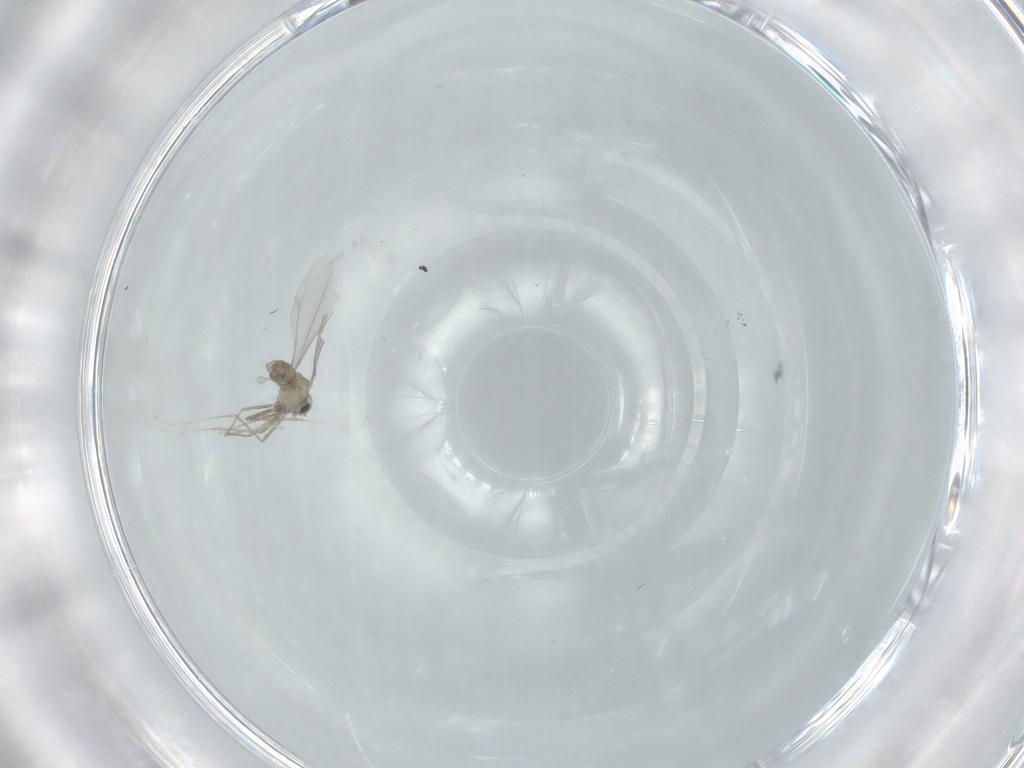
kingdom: Animalia
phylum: Arthropoda
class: Insecta
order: Diptera
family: Cecidomyiidae
